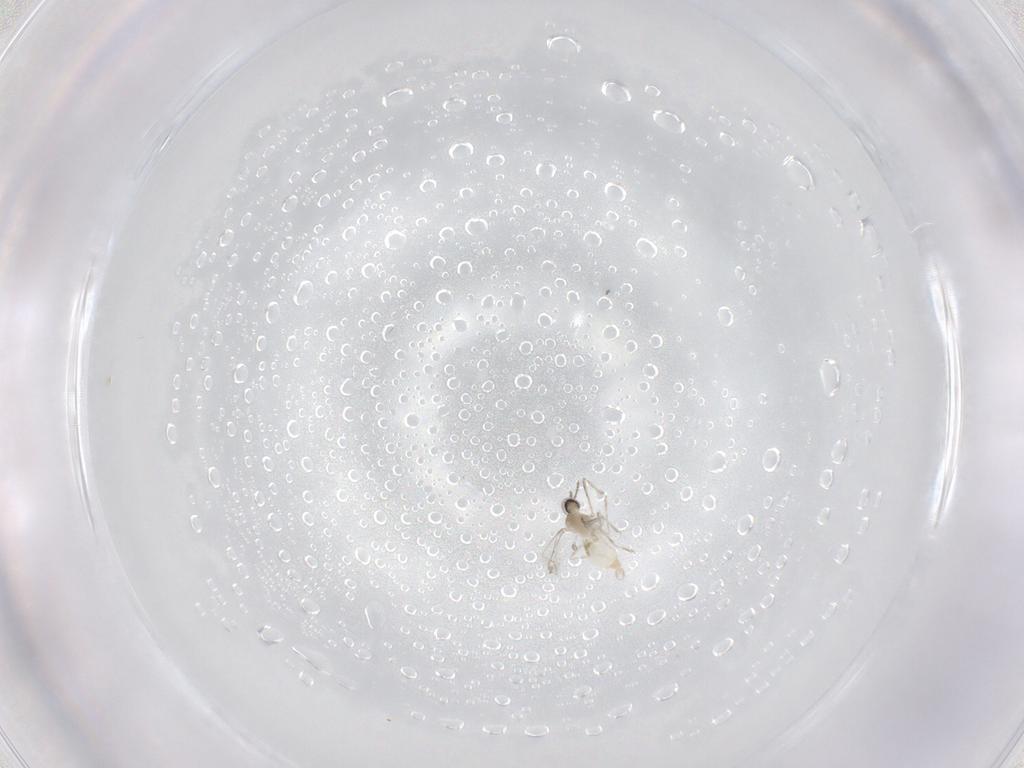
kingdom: Animalia
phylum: Arthropoda
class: Insecta
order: Diptera
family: Cecidomyiidae
